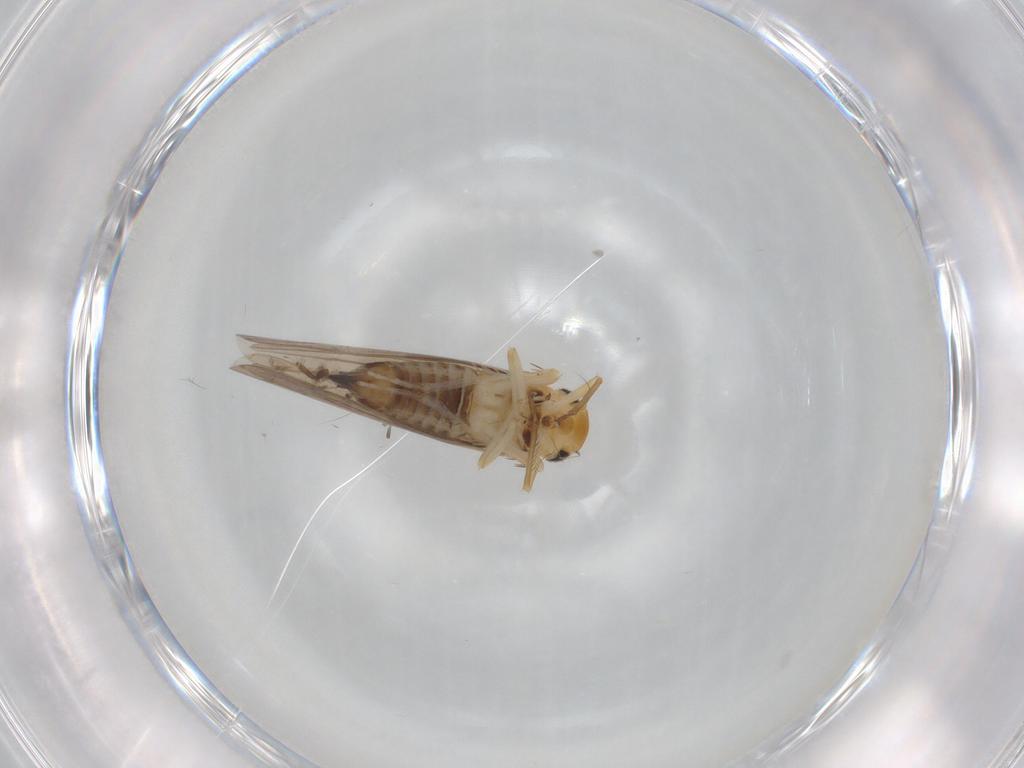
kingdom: Animalia
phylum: Arthropoda
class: Insecta
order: Hemiptera
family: Cicadellidae
